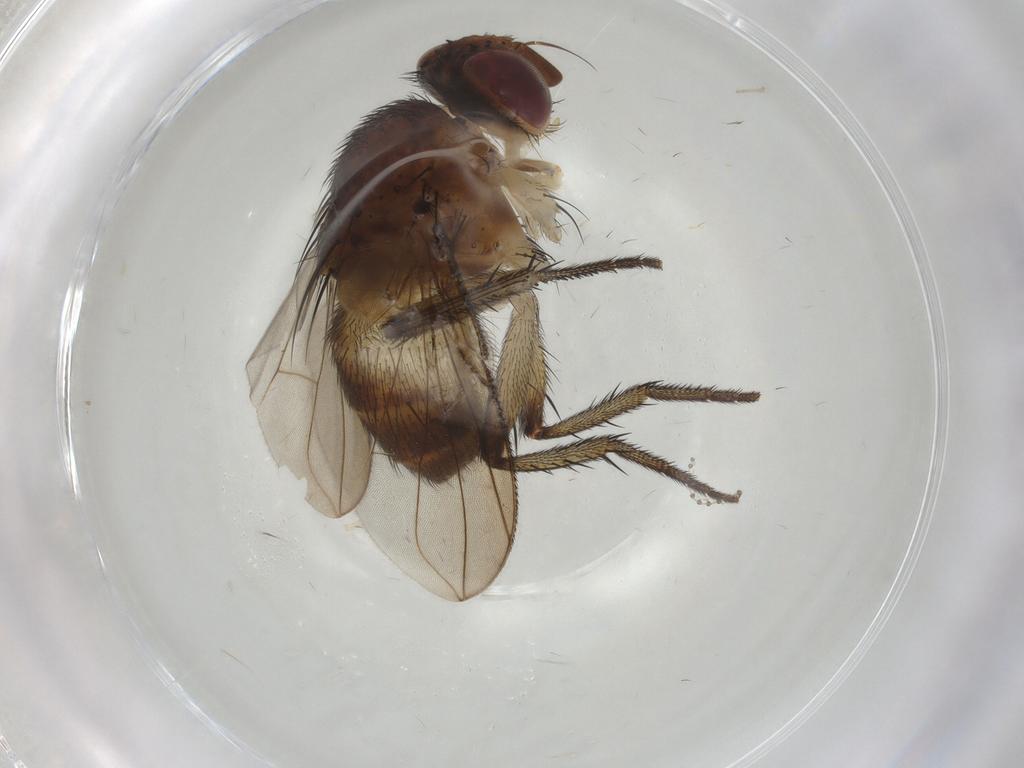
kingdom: Animalia
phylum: Arthropoda
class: Insecta
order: Diptera
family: Tachinidae
